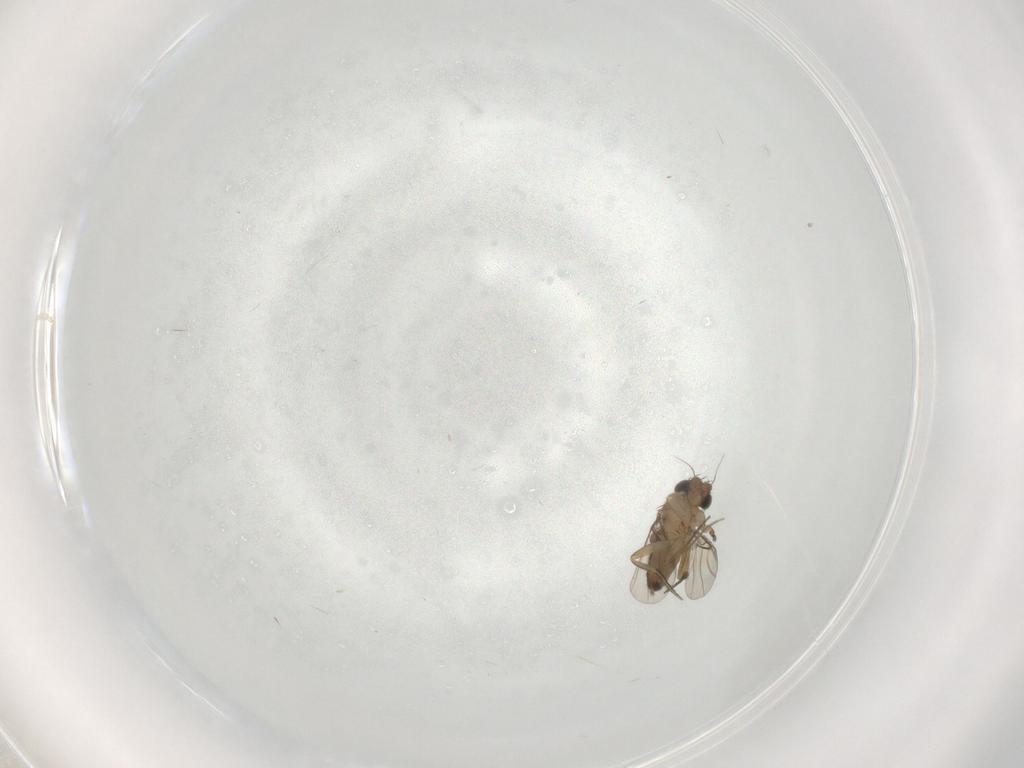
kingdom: Animalia
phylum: Arthropoda
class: Insecta
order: Diptera
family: Phoridae
